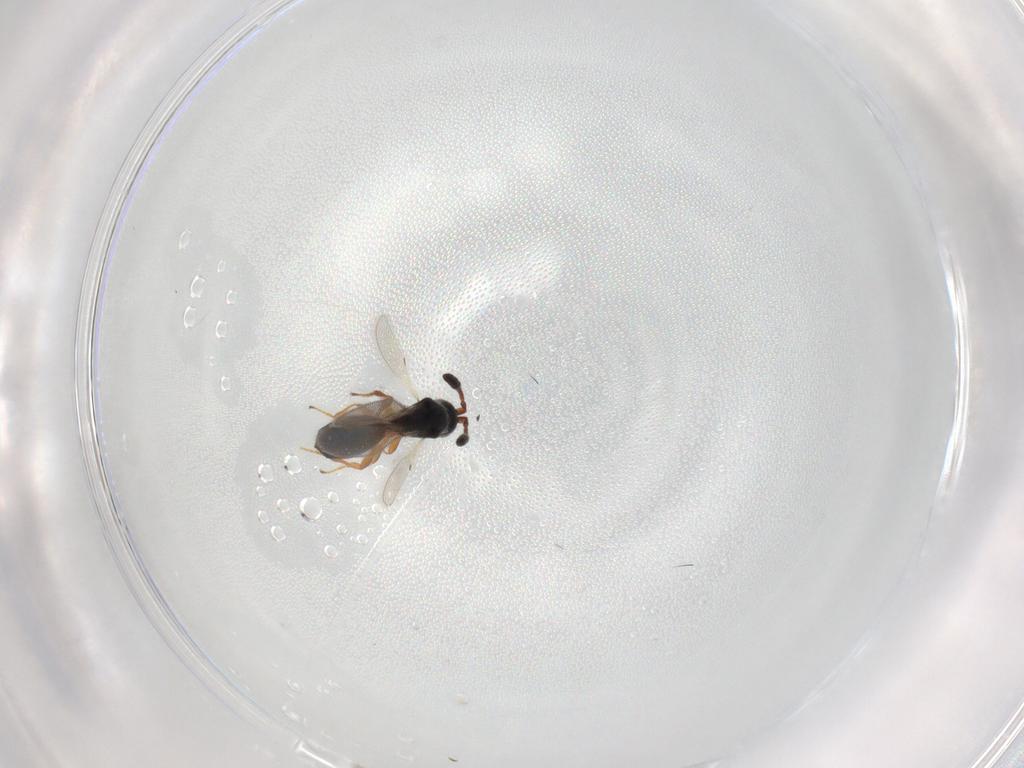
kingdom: Animalia
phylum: Arthropoda
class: Insecta
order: Hymenoptera
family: Diapriidae
